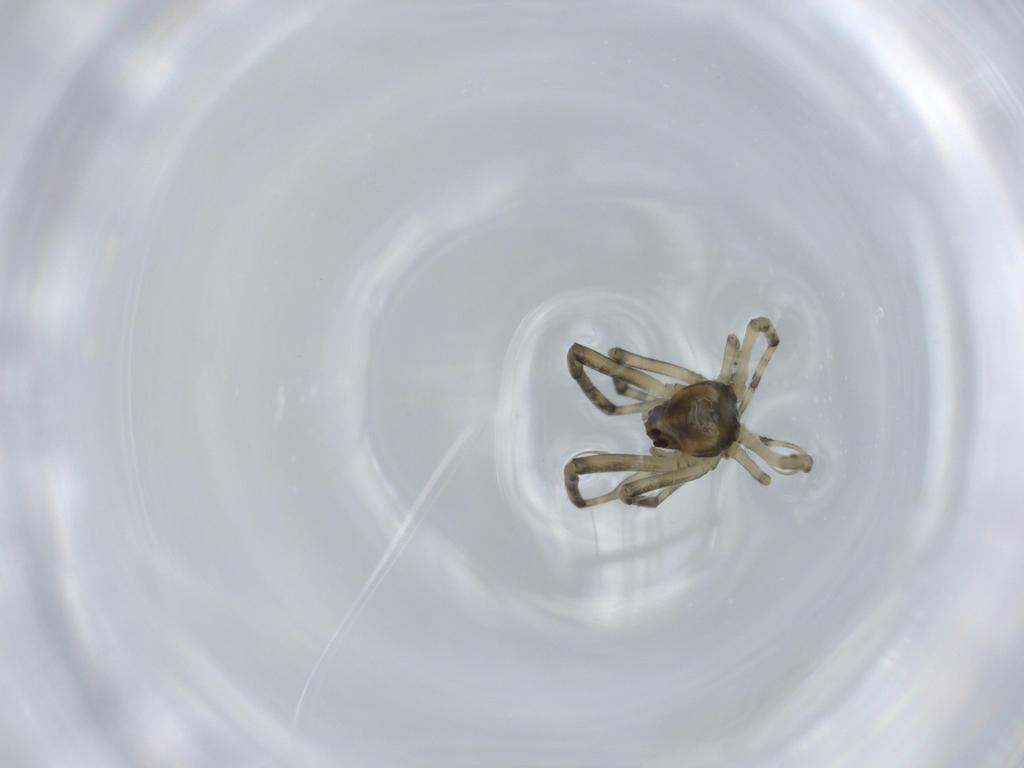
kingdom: Animalia
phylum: Arthropoda
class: Arachnida
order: Araneae
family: Tetragnathidae
